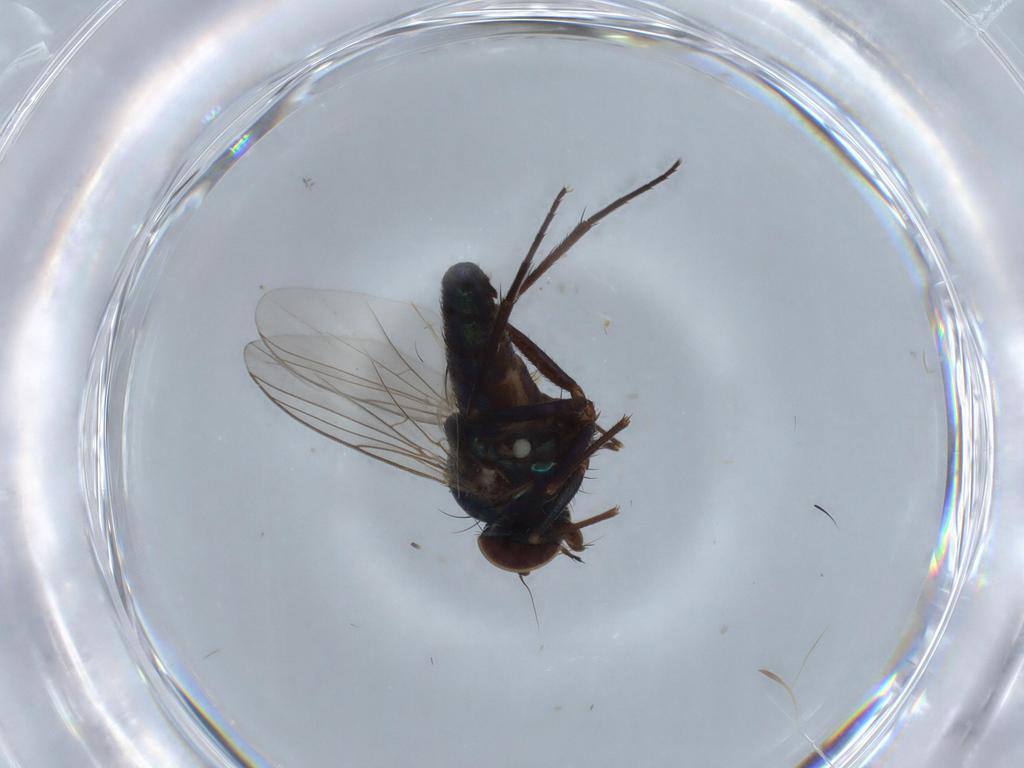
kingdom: Animalia
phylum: Arthropoda
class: Insecta
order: Diptera
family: Dolichopodidae
